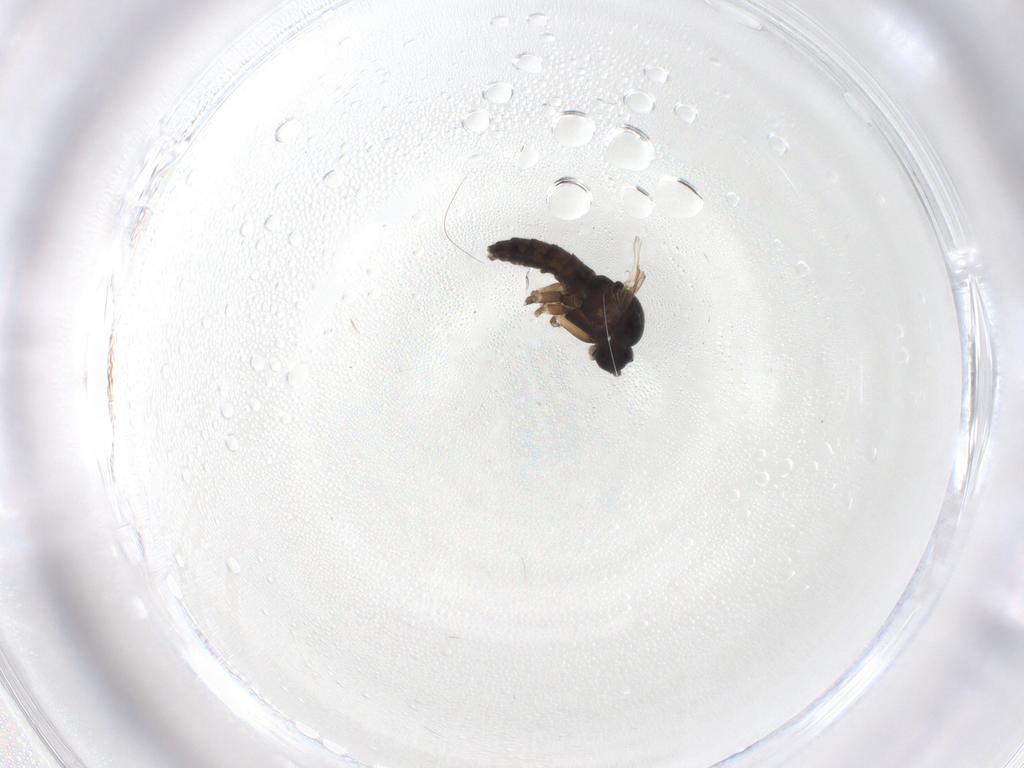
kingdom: Animalia
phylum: Arthropoda
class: Insecta
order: Diptera
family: Sciaridae
